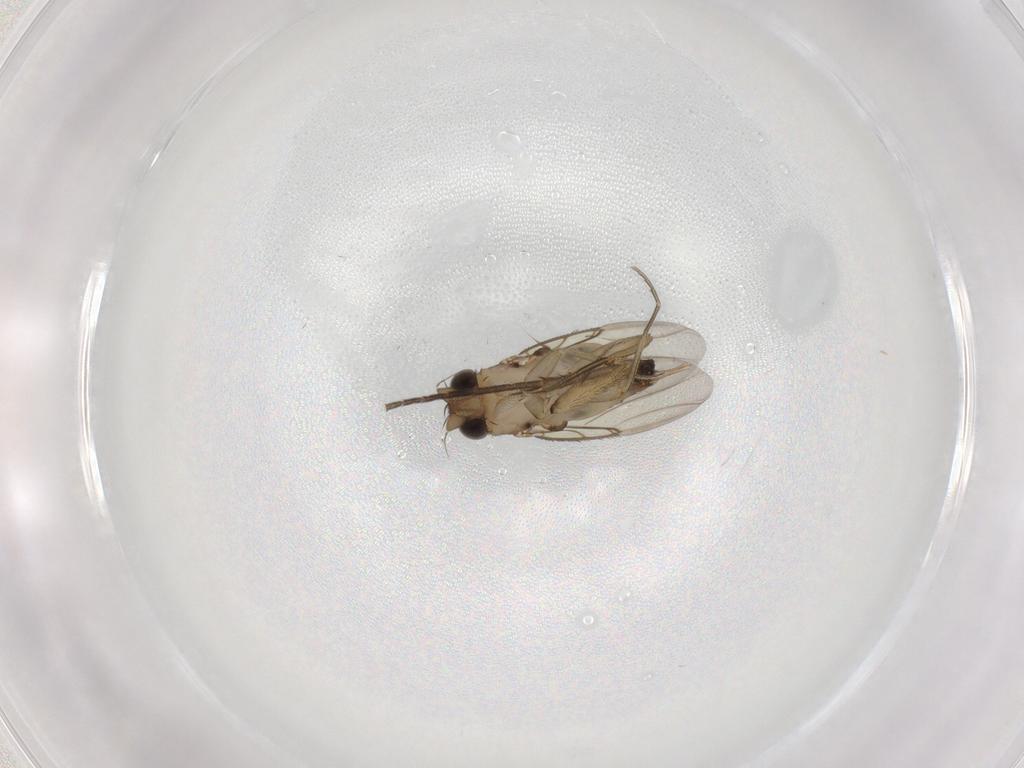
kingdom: Animalia
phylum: Arthropoda
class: Insecta
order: Diptera
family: Mycetophilidae
